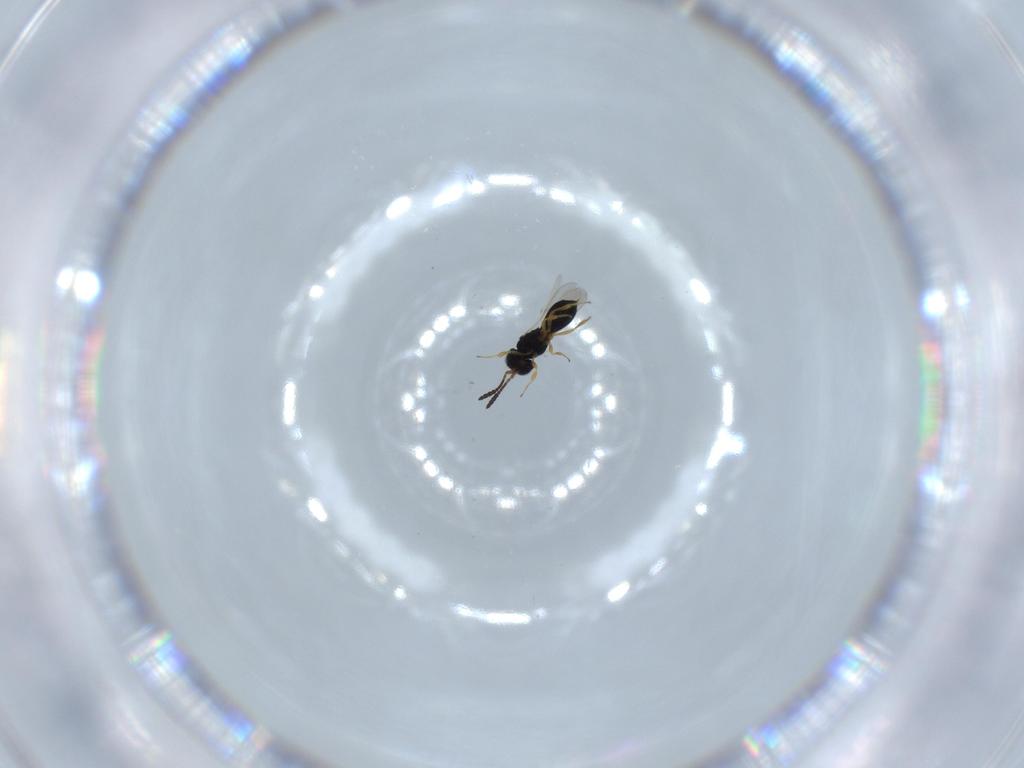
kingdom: Animalia
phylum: Arthropoda
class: Insecta
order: Hymenoptera
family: Scelionidae
